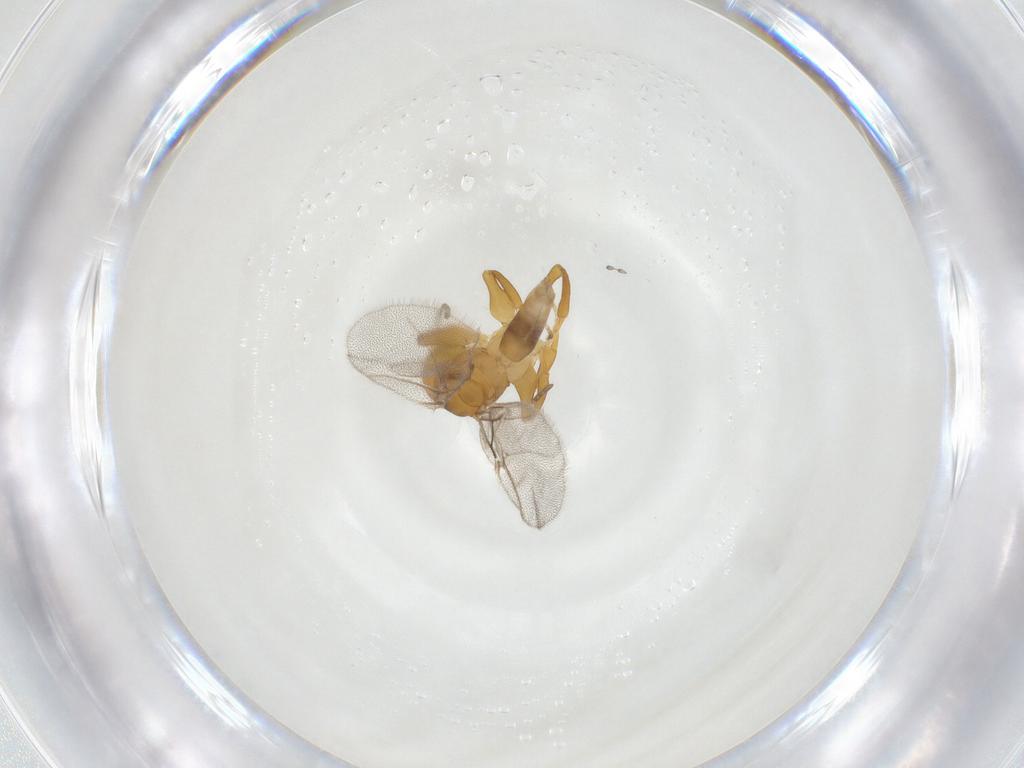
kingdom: Animalia
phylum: Arthropoda
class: Insecta
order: Hymenoptera
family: Cynipidae
